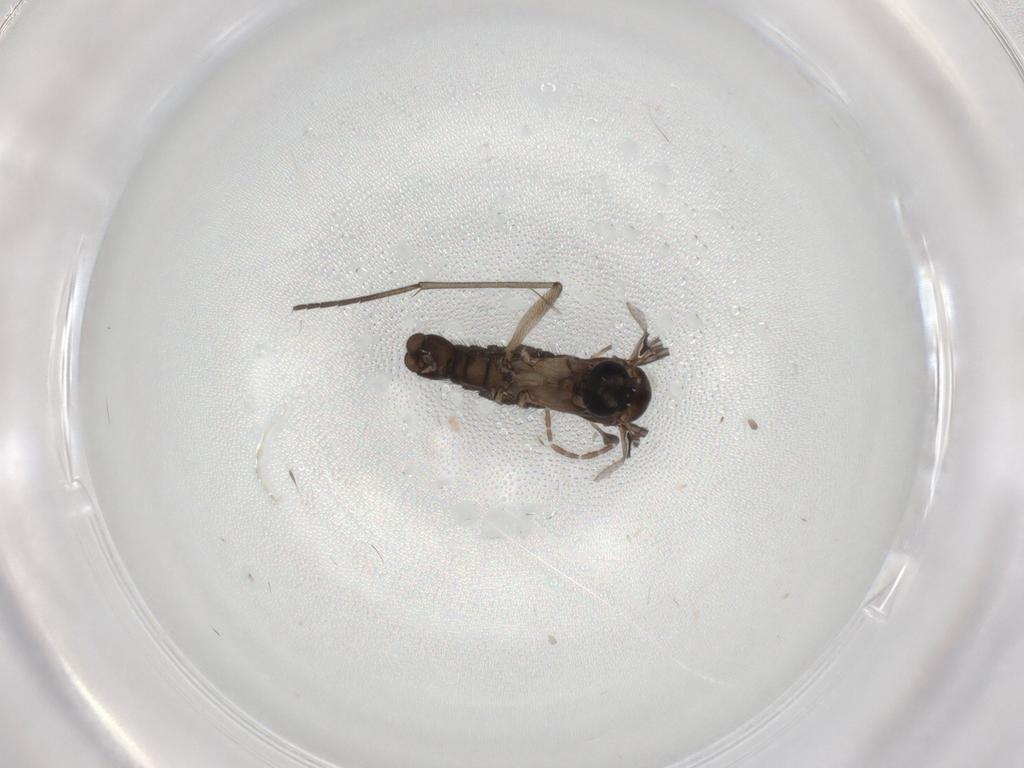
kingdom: Animalia
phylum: Arthropoda
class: Insecta
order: Diptera
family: Sciaridae
